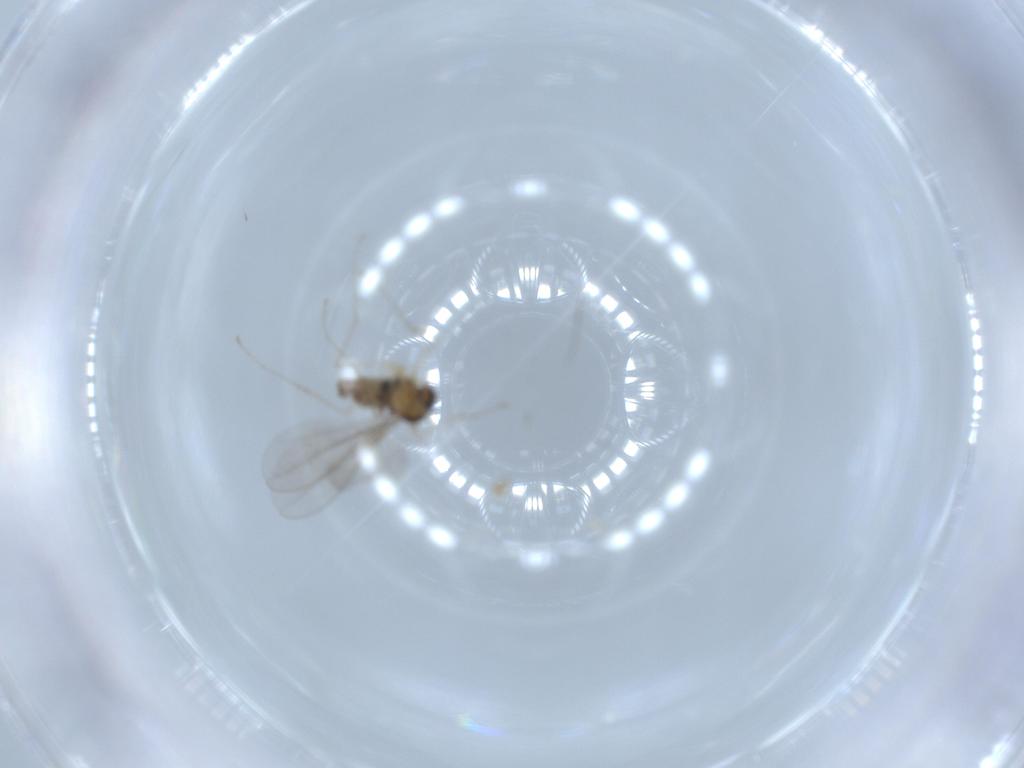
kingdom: Animalia
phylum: Arthropoda
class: Insecta
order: Diptera
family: Chironomidae
